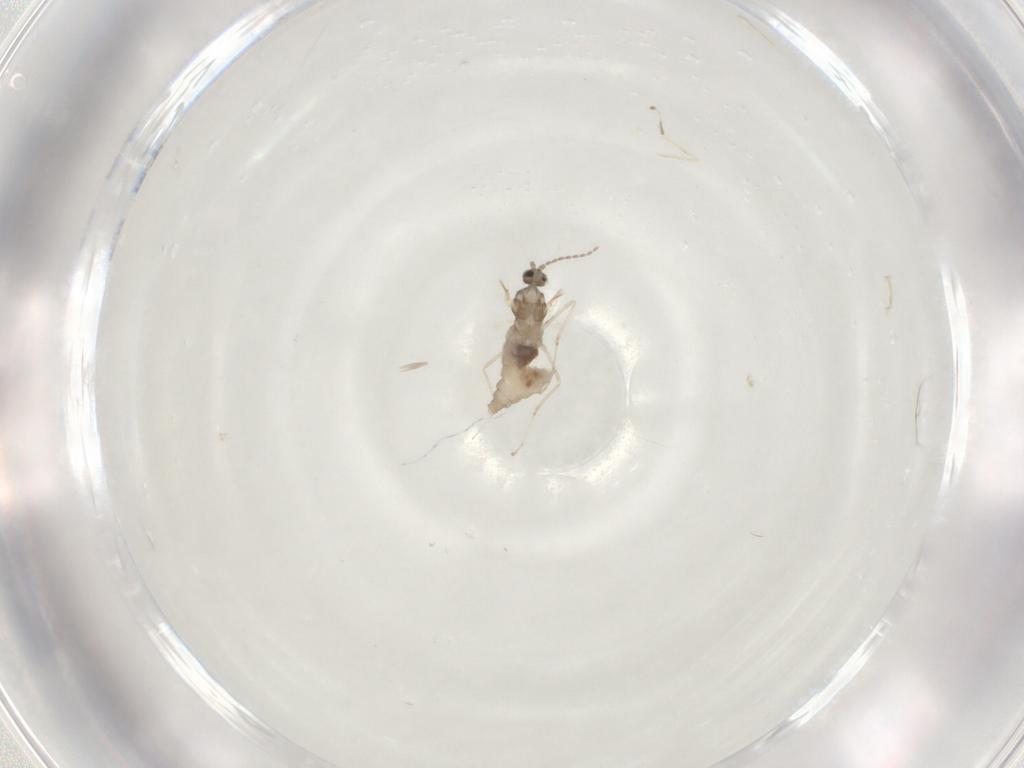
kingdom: Animalia
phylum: Arthropoda
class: Insecta
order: Diptera
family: Cecidomyiidae
